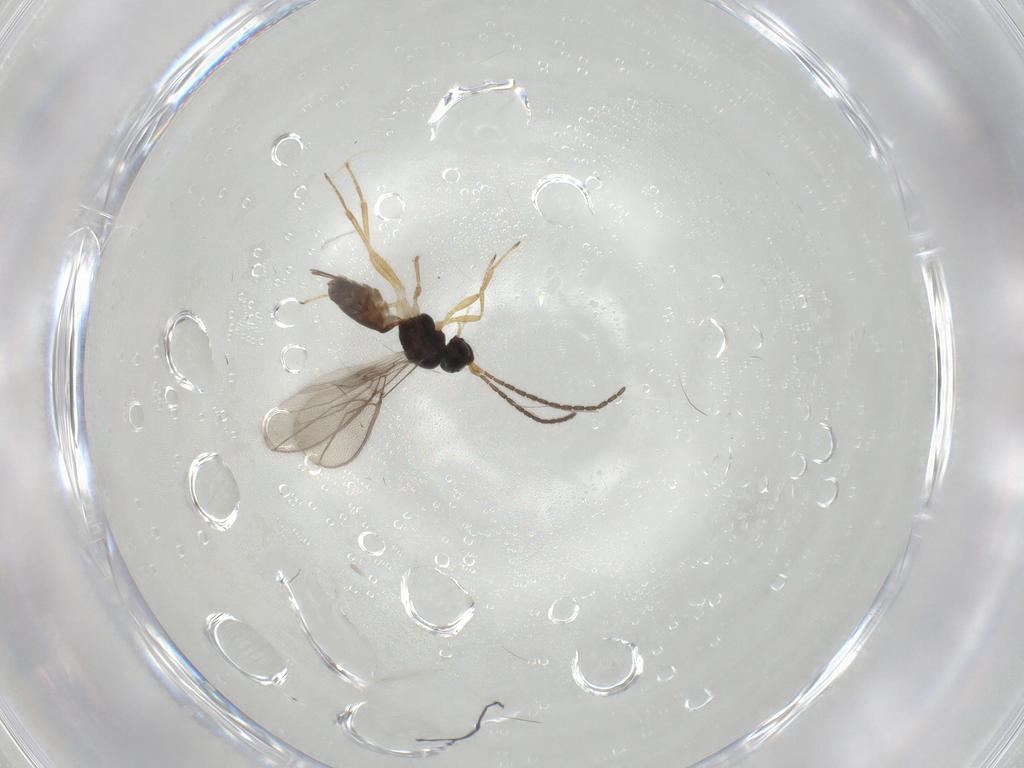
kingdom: Animalia
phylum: Arthropoda
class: Insecta
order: Hymenoptera
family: Braconidae
